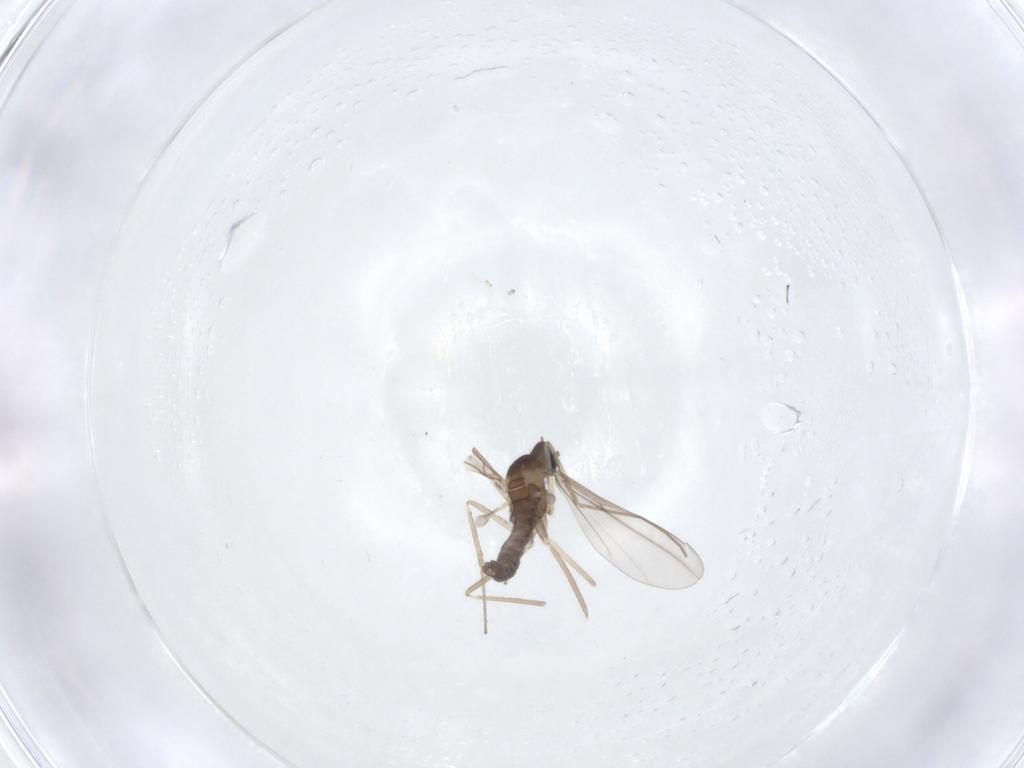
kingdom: Animalia
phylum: Arthropoda
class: Insecta
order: Diptera
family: Cecidomyiidae
